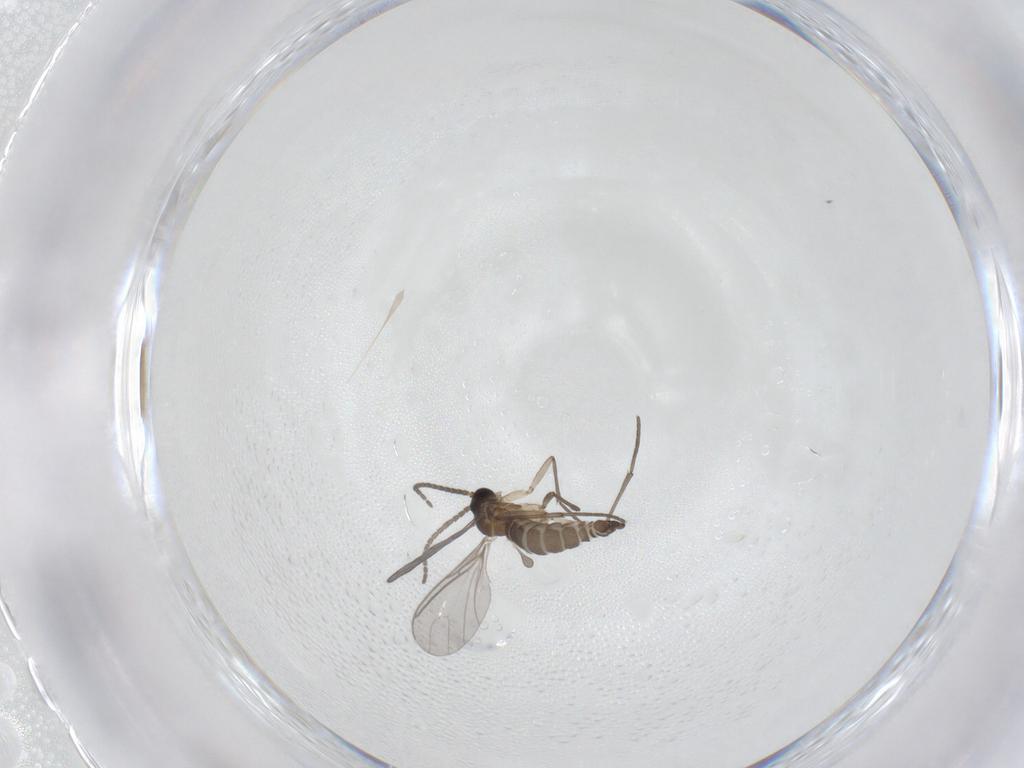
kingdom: Animalia
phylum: Arthropoda
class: Insecta
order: Diptera
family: Sciaridae
